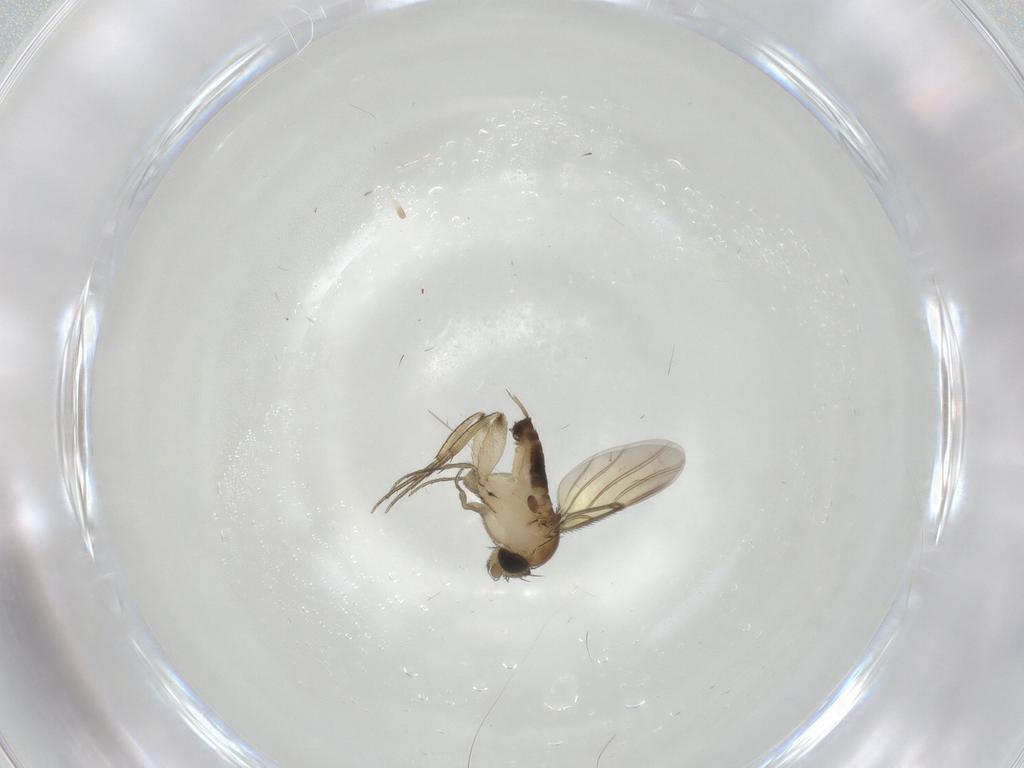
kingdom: Animalia
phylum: Arthropoda
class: Insecta
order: Diptera
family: Phoridae
